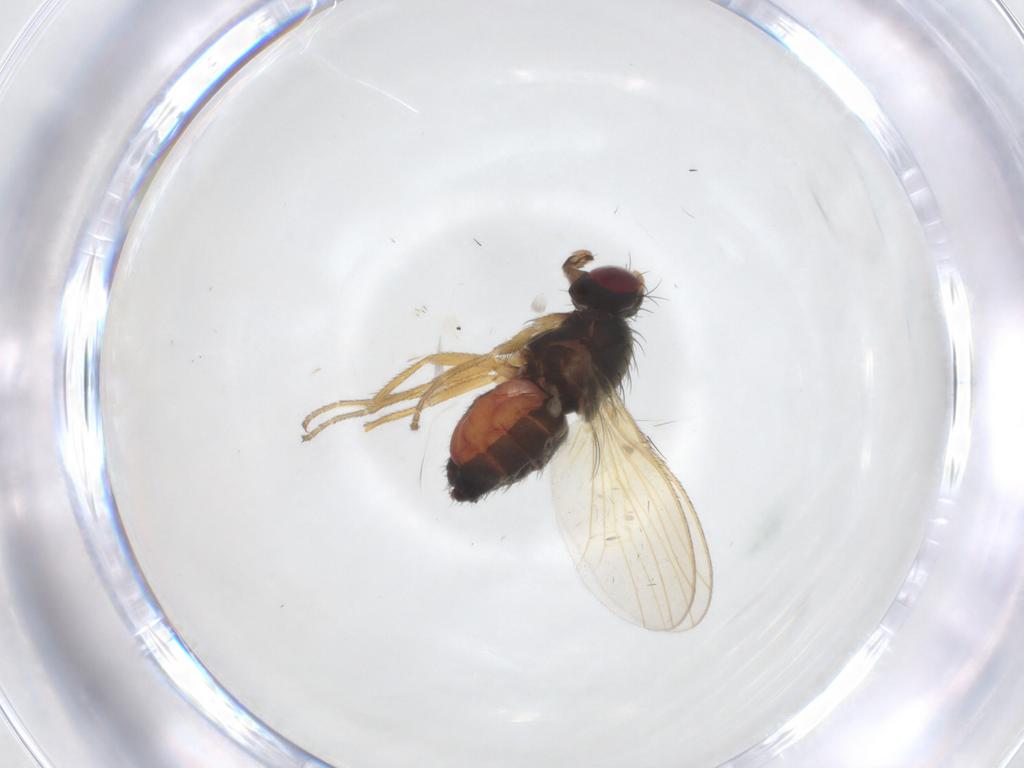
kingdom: Animalia
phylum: Arthropoda
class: Insecta
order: Diptera
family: Heleomyzidae
